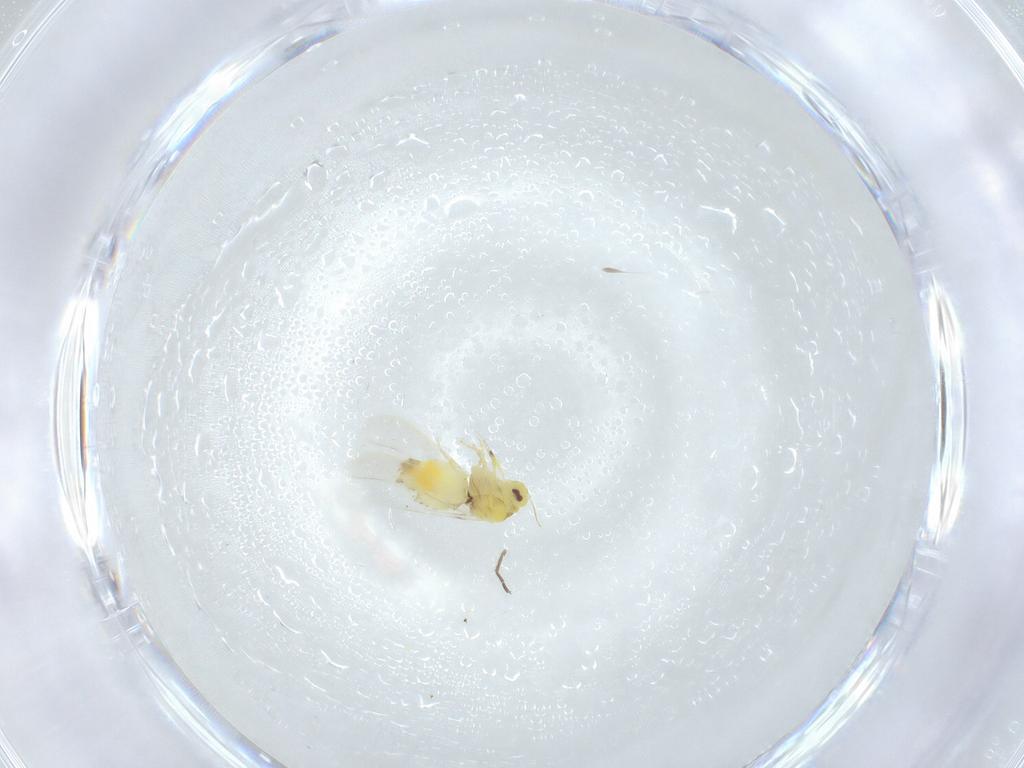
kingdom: Animalia
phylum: Arthropoda
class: Insecta
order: Hemiptera
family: Aleyrodidae
